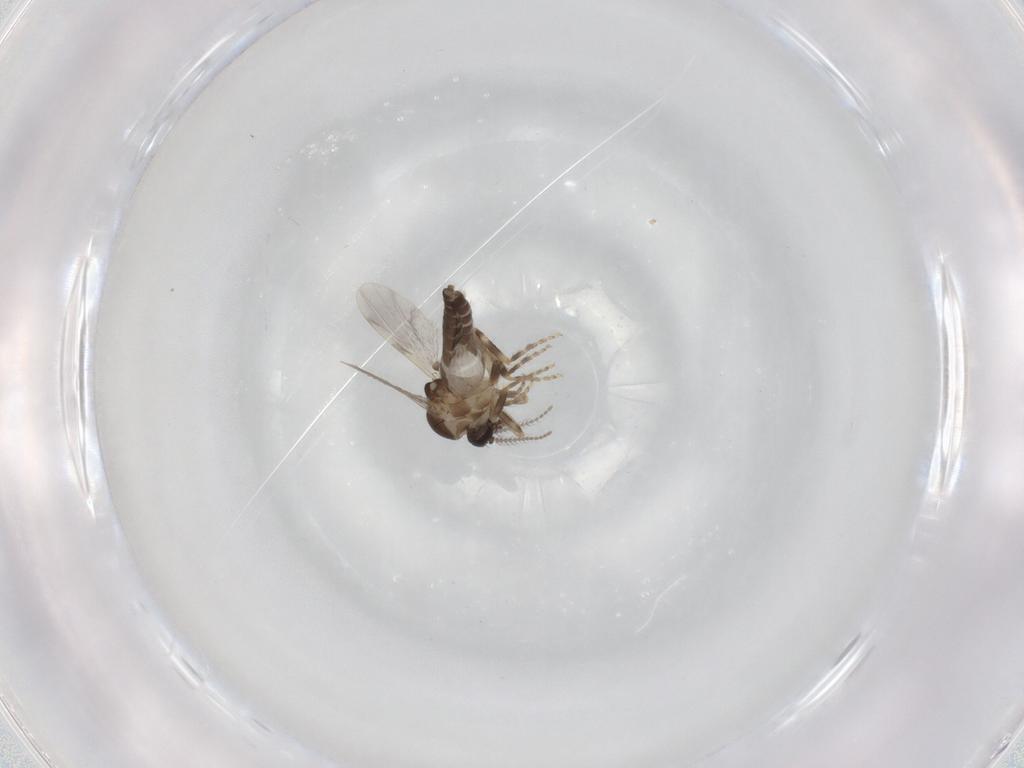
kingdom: Animalia
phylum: Arthropoda
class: Insecta
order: Diptera
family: Ceratopogonidae
